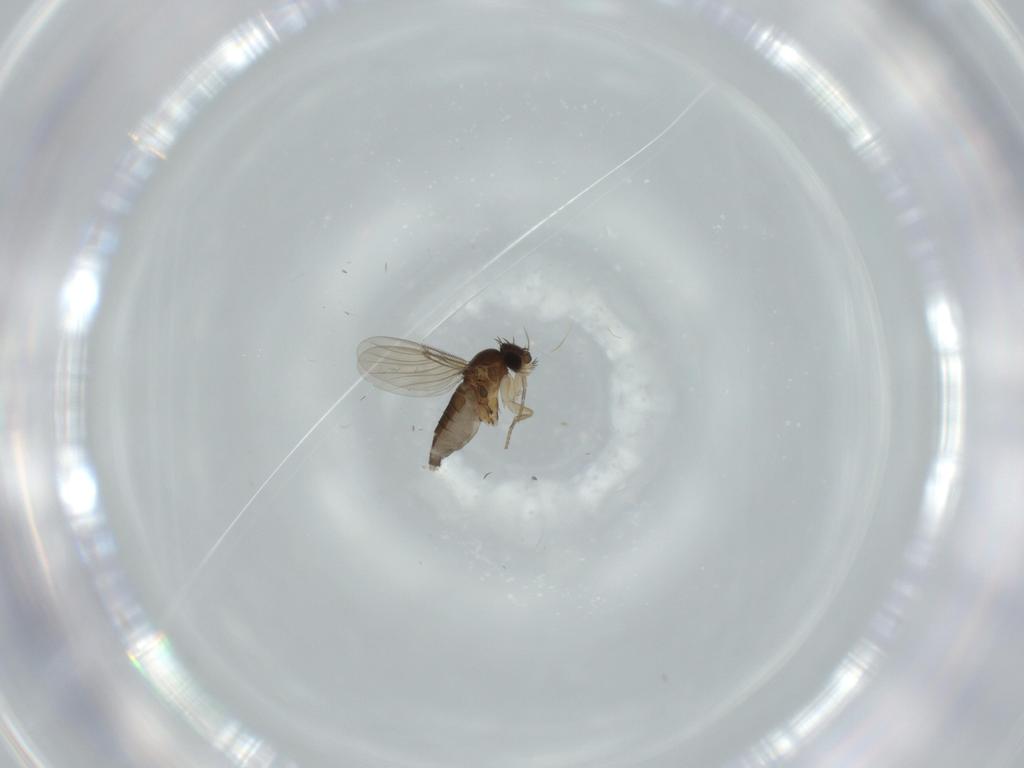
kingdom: Animalia
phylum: Arthropoda
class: Insecta
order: Diptera
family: Phoridae
